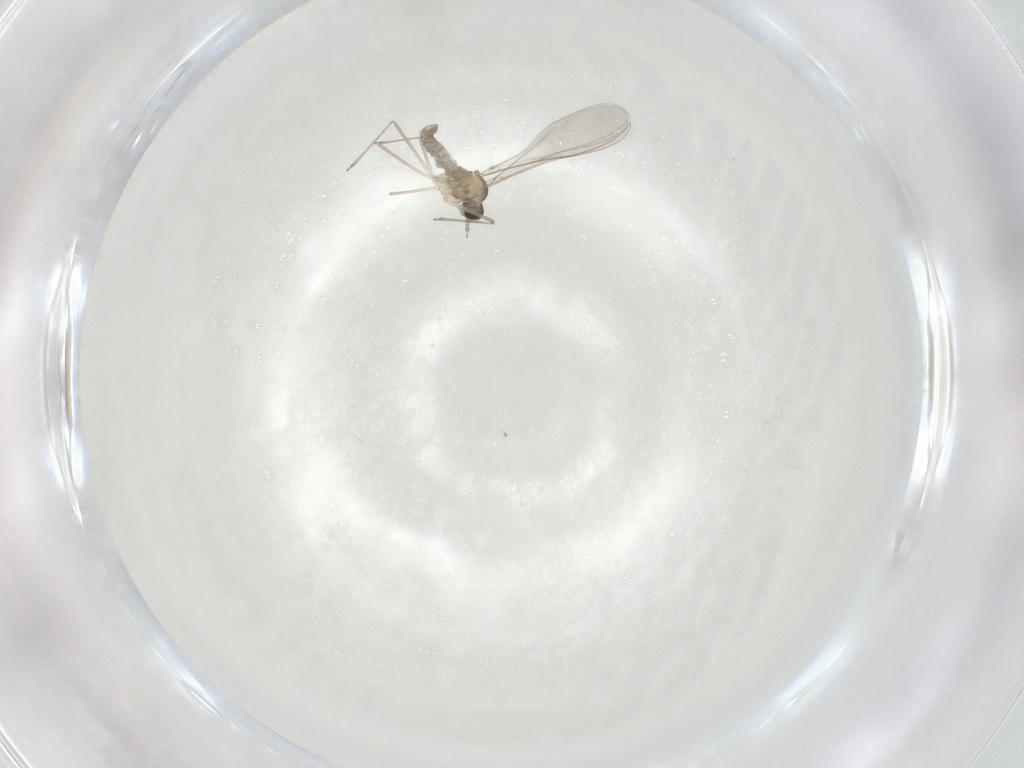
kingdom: Animalia
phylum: Arthropoda
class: Insecta
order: Diptera
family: Cecidomyiidae
